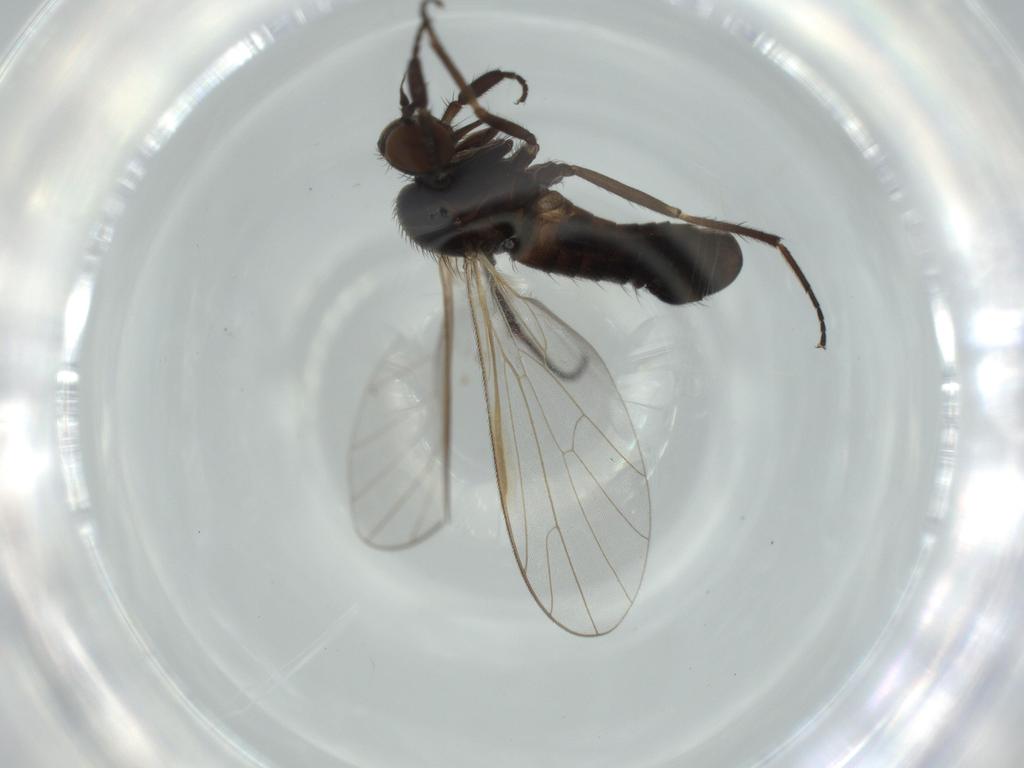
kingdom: Animalia
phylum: Arthropoda
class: Insecta
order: Diptera
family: Empididae
